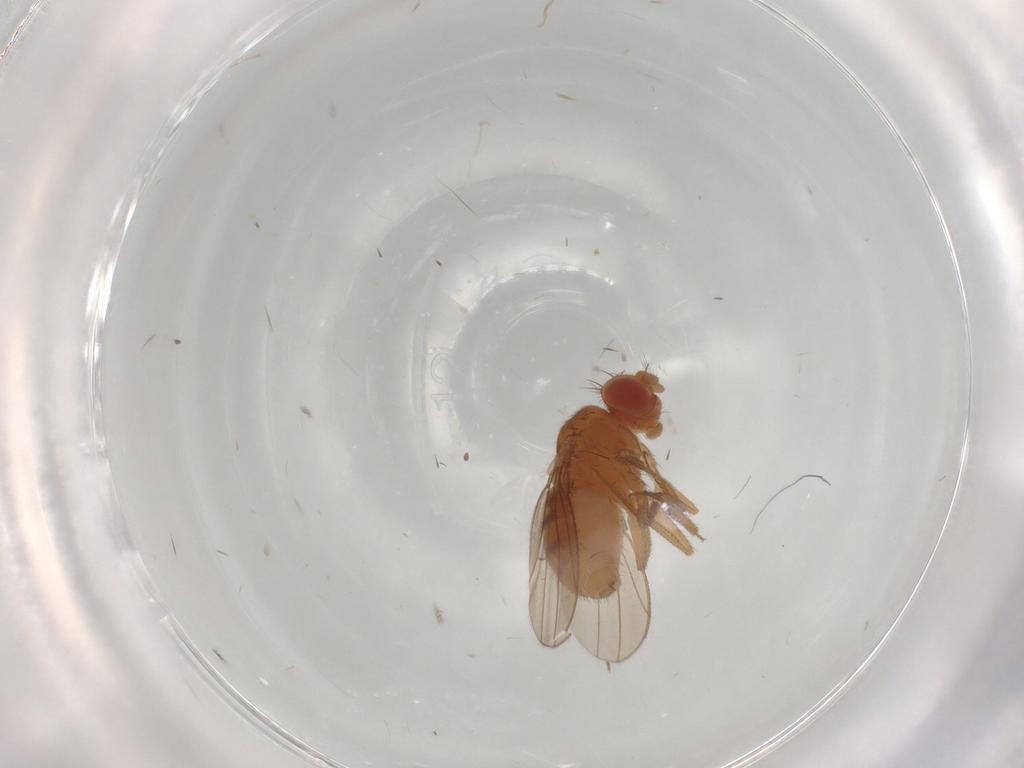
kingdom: Animalia
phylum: Arthropoda
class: Insecta
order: Diptera
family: Drosophilidae
